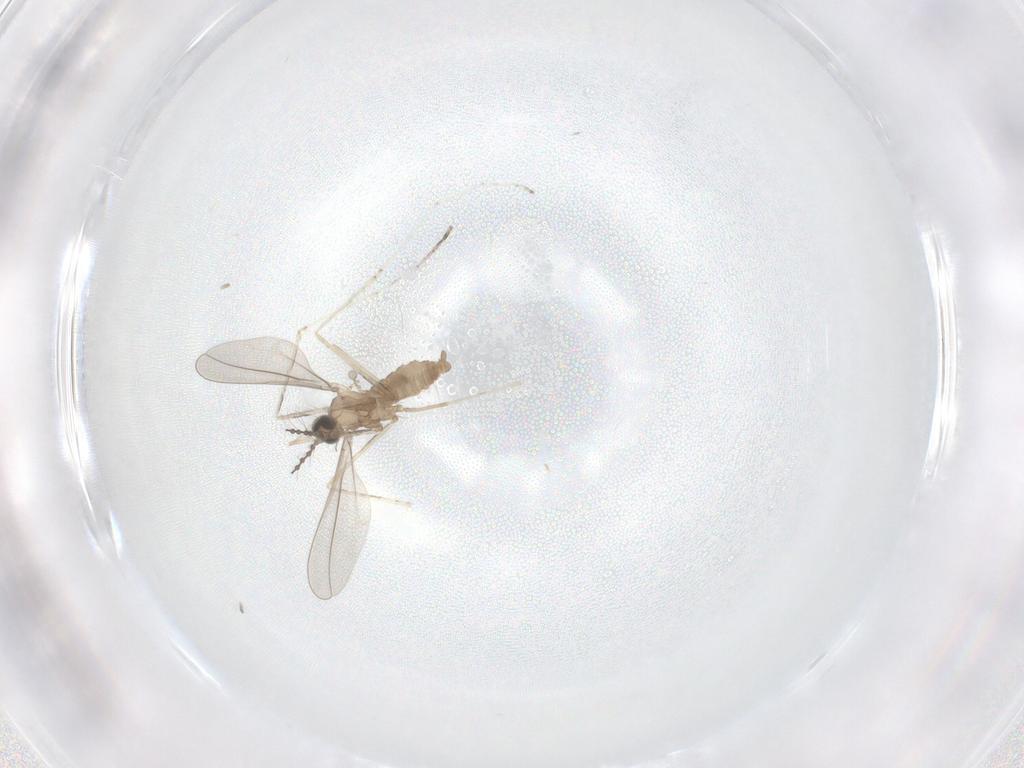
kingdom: Animalia
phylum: Arthropoda
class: Insecta
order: Diptera
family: Cecidomyiidae
